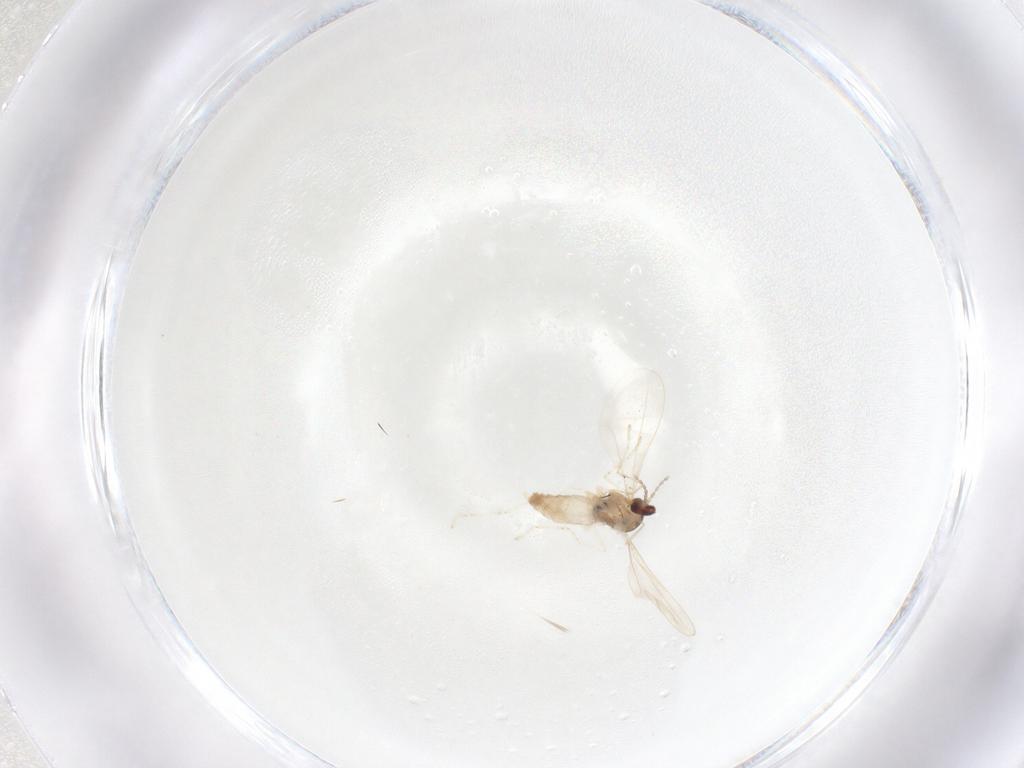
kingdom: Animalia
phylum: Arthropoda
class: Insecta
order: Diptera
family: Cecidomyiidae
